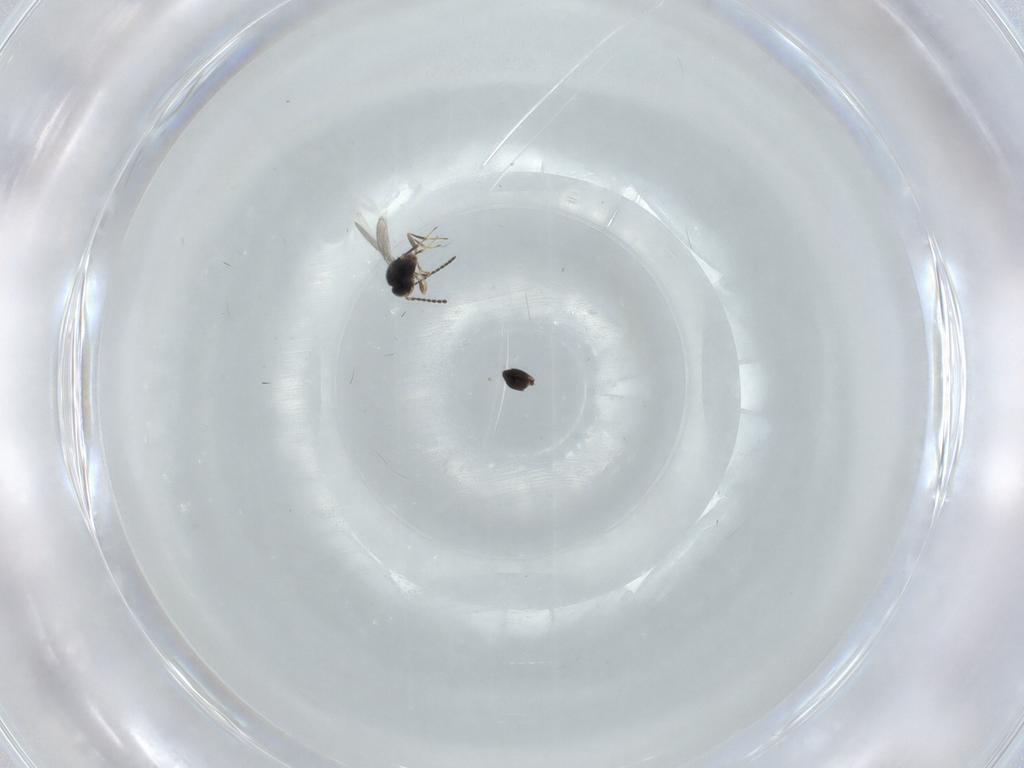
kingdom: Animalia
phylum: Arthropoda
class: Insecta
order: Hymenoptera
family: Scelionidae
